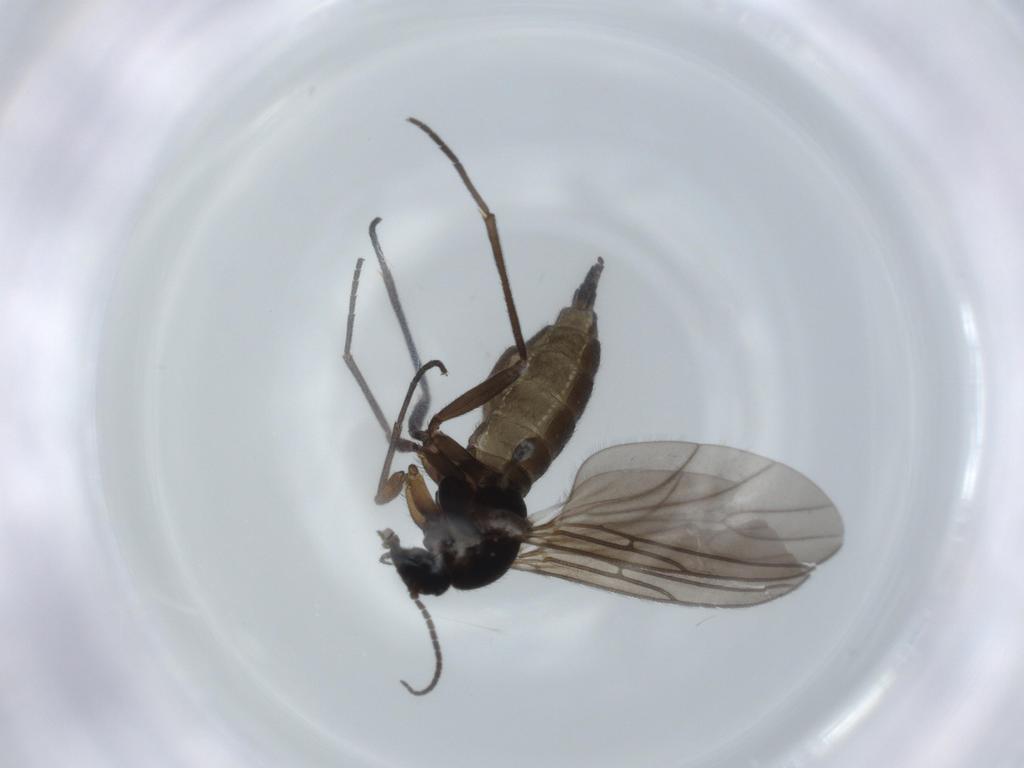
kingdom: Animalia
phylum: Arthropoda
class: Insecta
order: Diptera
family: Sciaridae
